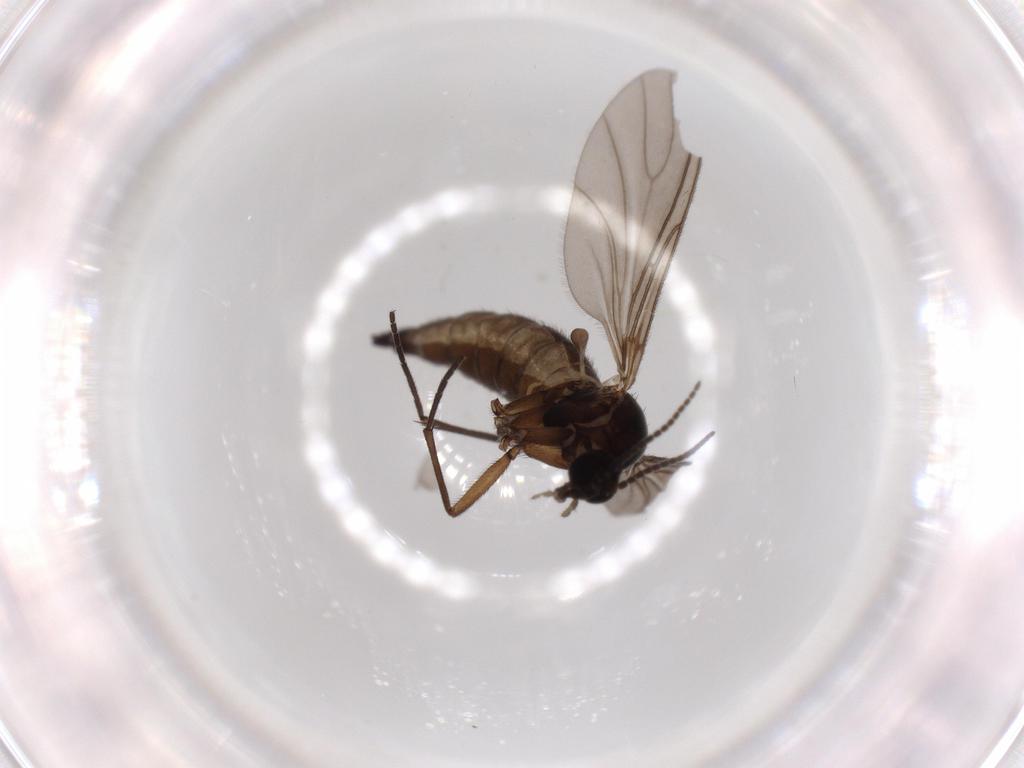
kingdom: Animalia
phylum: Arthropoda
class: Insecta
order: Diptera
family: Sciaridae
